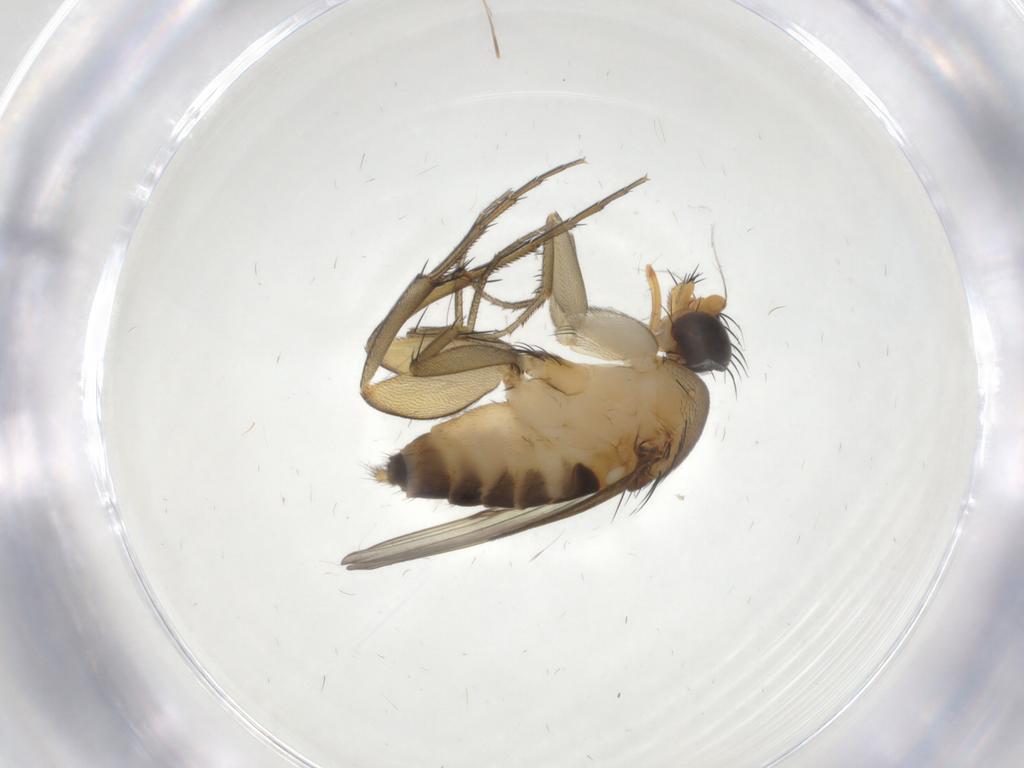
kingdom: Animalia
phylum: Arthropoda
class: Insecta
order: Diptera
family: Phoridae
